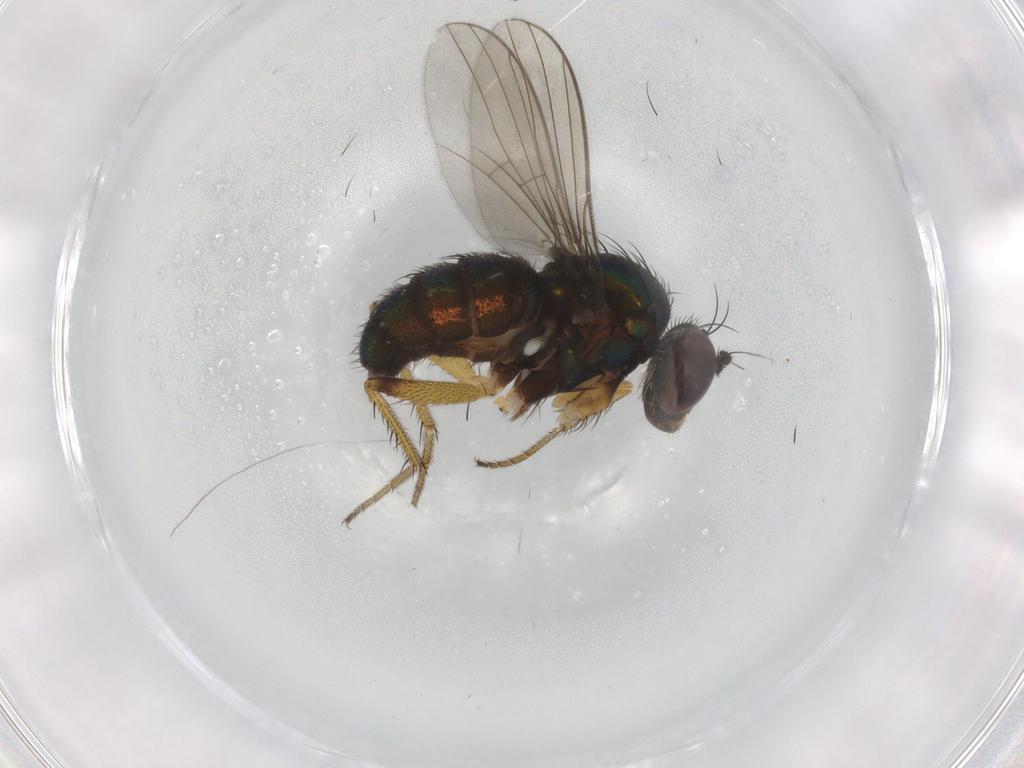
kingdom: Animalia
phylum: Arthropoda
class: Insecta
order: Diptera
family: Dolichopodidae
